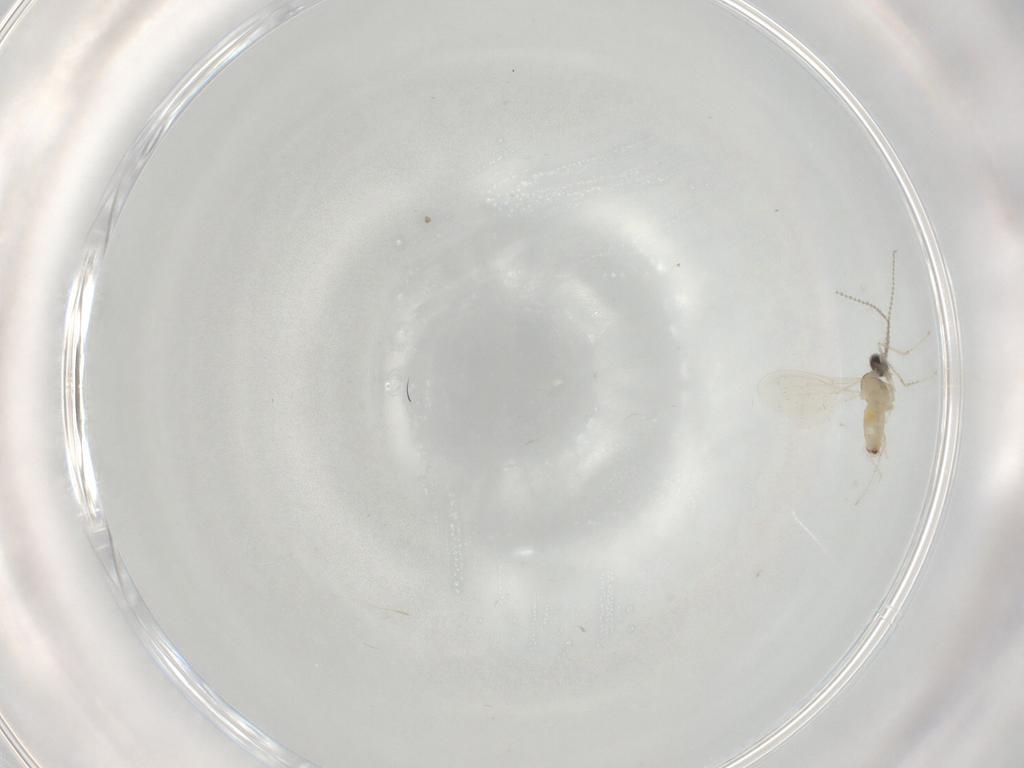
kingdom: Animalia
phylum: Arthropoda
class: Insecta
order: Diptera
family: Cecidomyiidae
